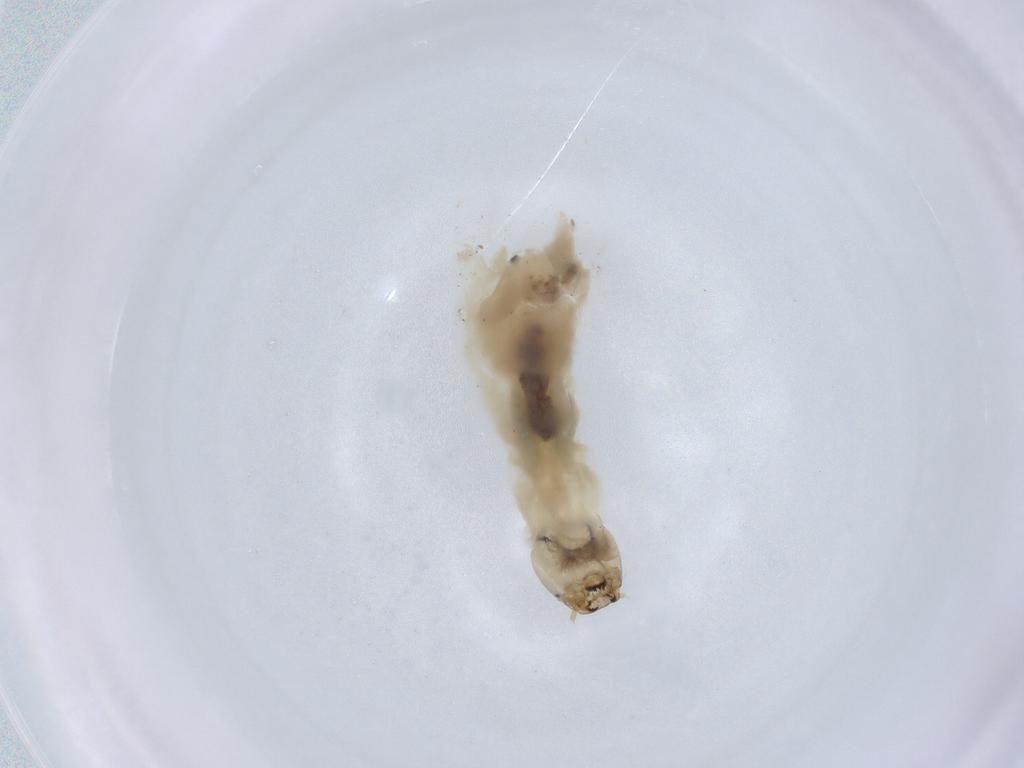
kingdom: Animalia
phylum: Arthropoda
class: Insecta
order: Diptera
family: Chironomidae
